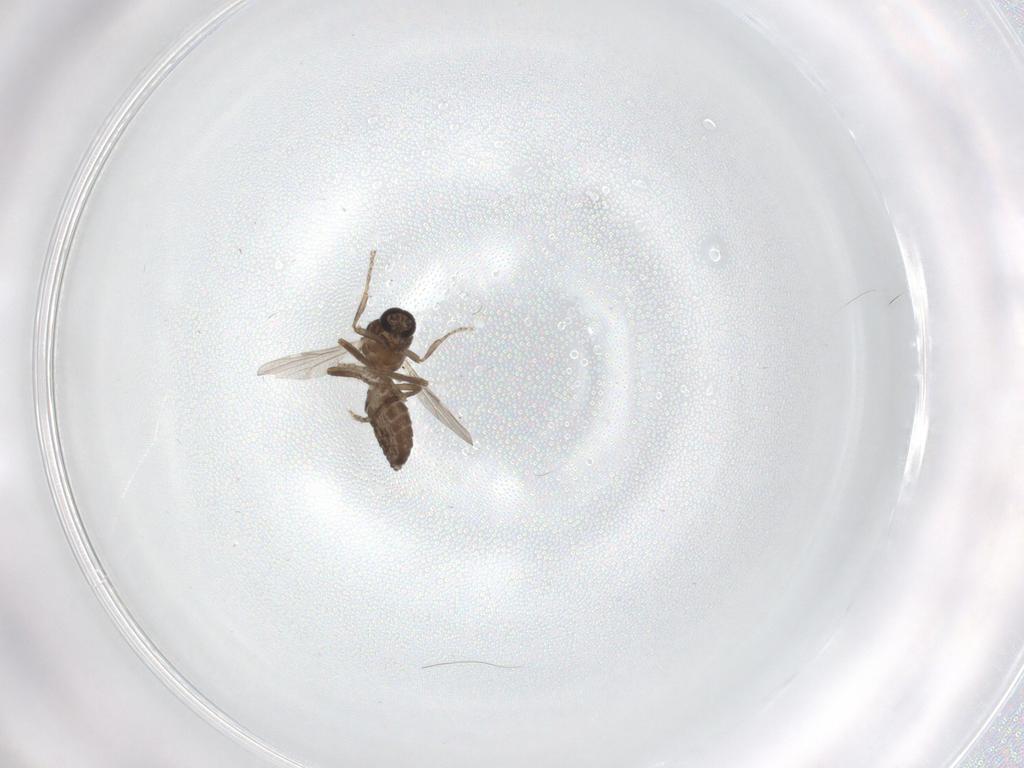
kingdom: Animalia
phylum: Arthropoda
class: Insecta
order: Diptera
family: Ceratopogonidae
